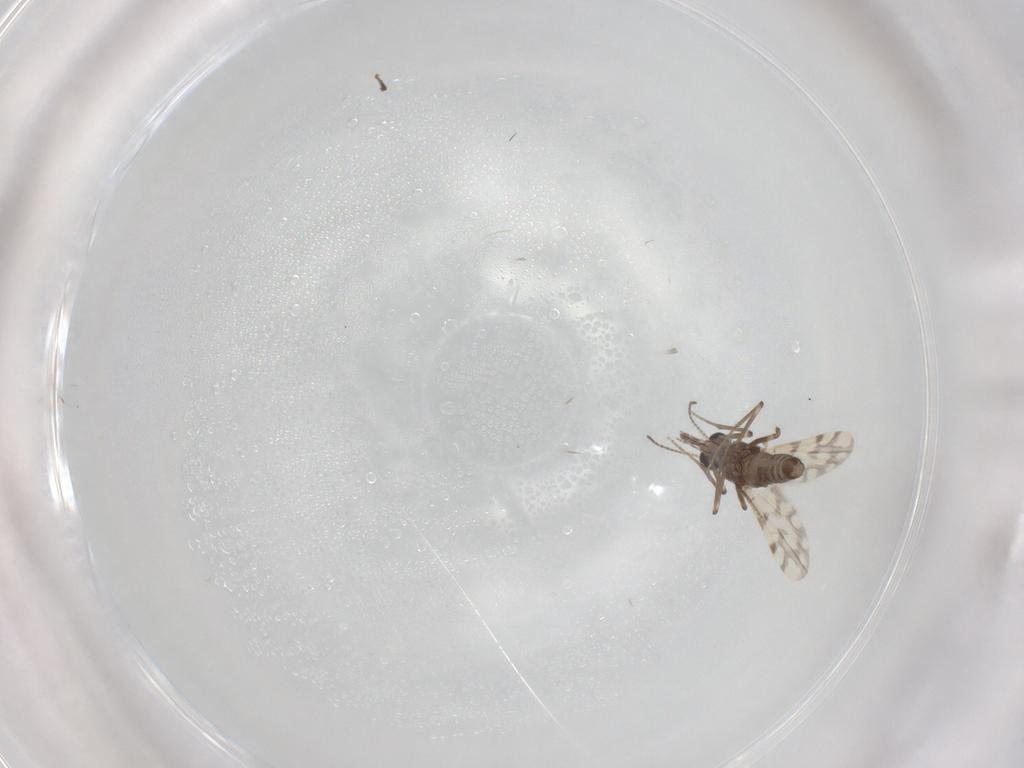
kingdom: Animalia
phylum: Arthropoda
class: Insecta
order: Diptera
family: Ceratopogonidae
